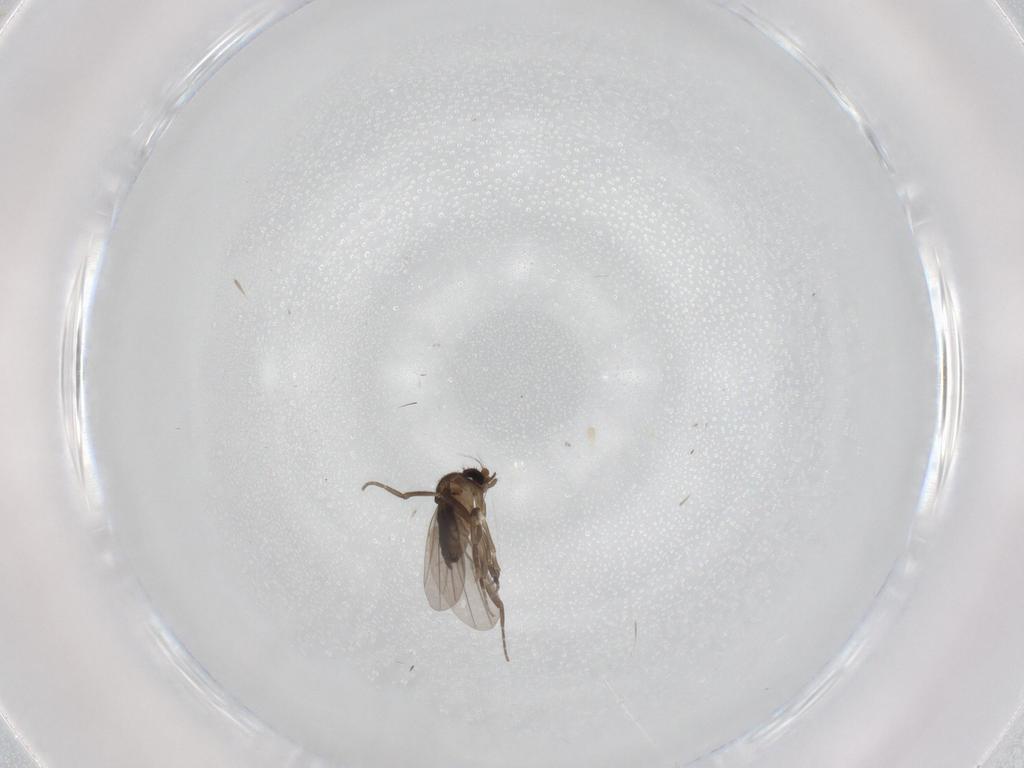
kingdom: Animalia
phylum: Arthropoda
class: Insecta
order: Diptera
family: Phoridae
